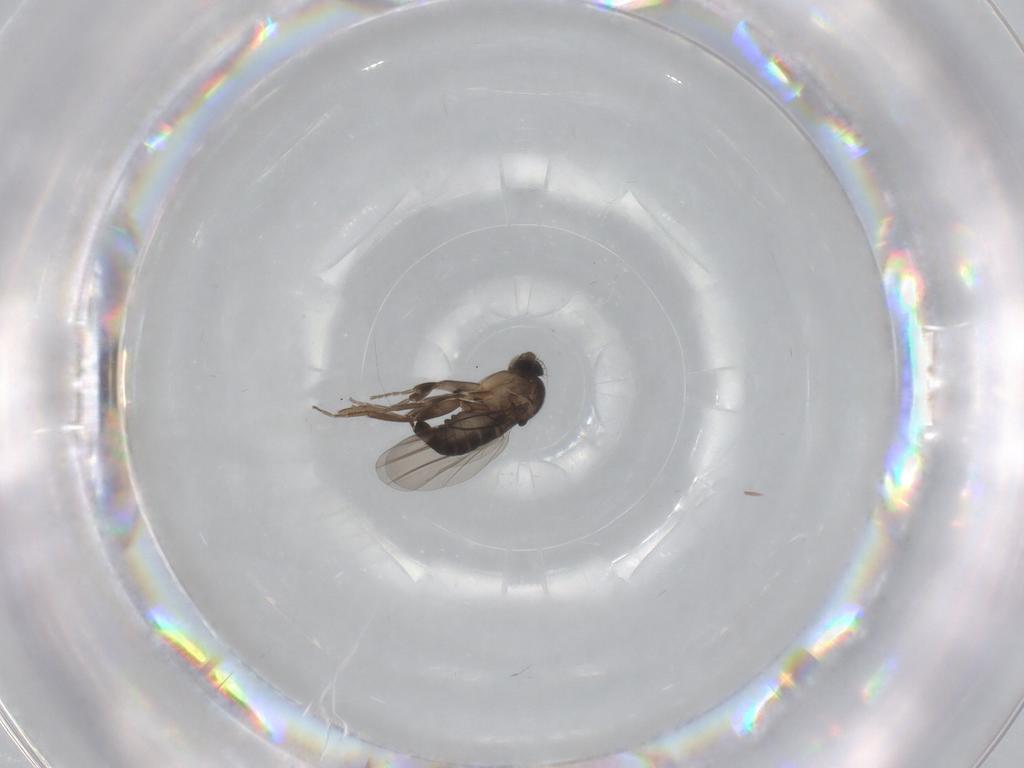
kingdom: Animalia
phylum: Arthropoda
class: Insecta
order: Diptera
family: Phoridae
